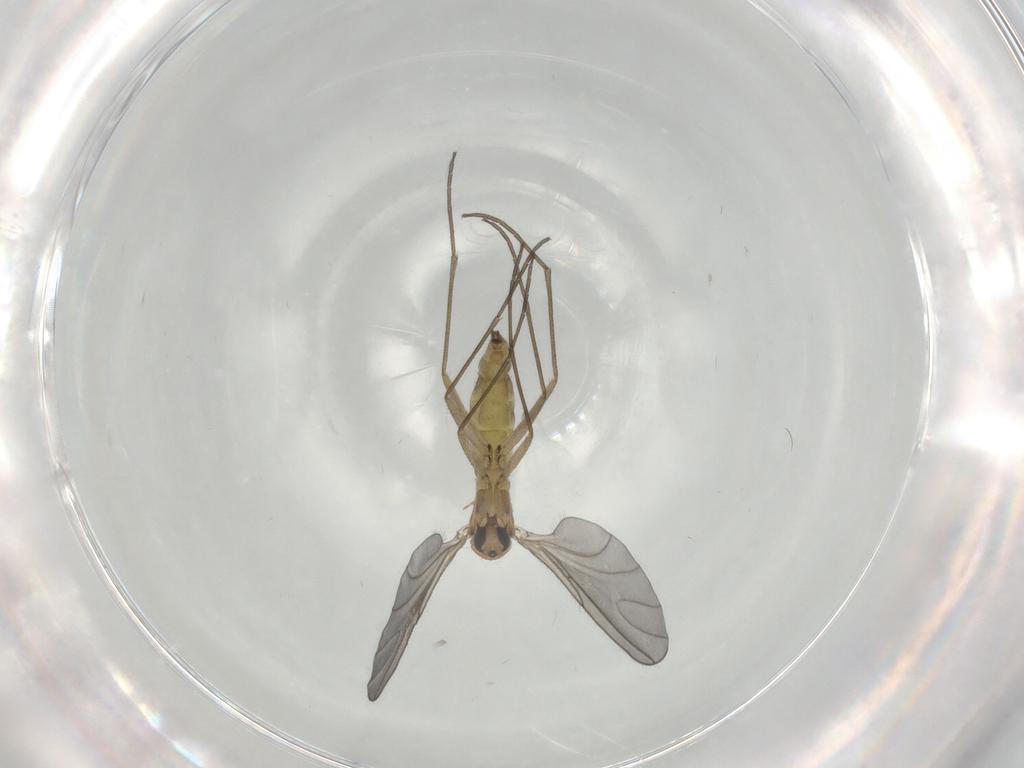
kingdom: Animalia
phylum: Arthropoda
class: Insecta
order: Diptera
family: Sciaridae
